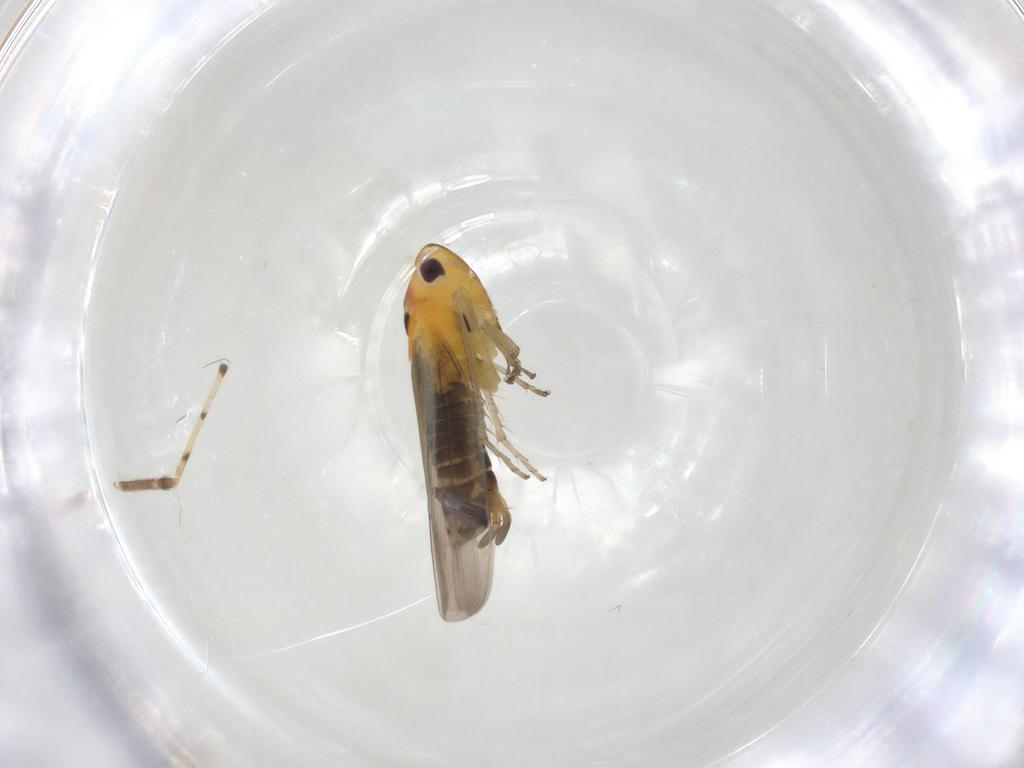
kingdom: Animalia
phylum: Arthropoda
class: Insecta
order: Hemiptera
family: Cicadellidae
